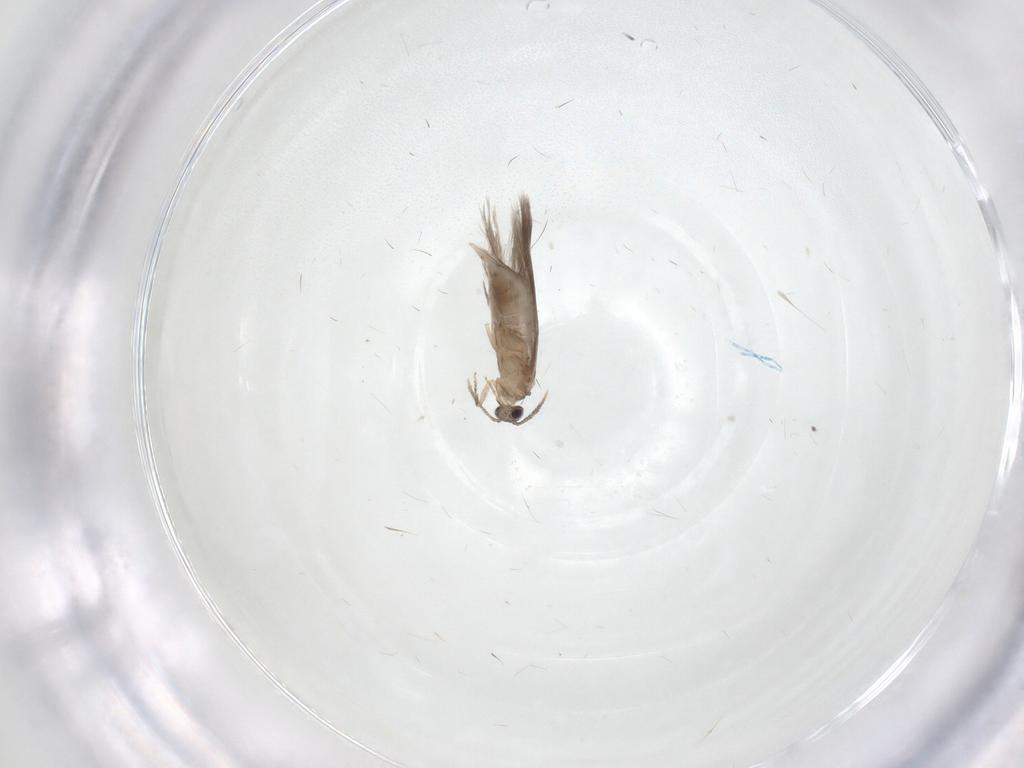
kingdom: Animalia
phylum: Arthropoda
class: Insecta
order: Trichoptera
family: Hydroptilidae
